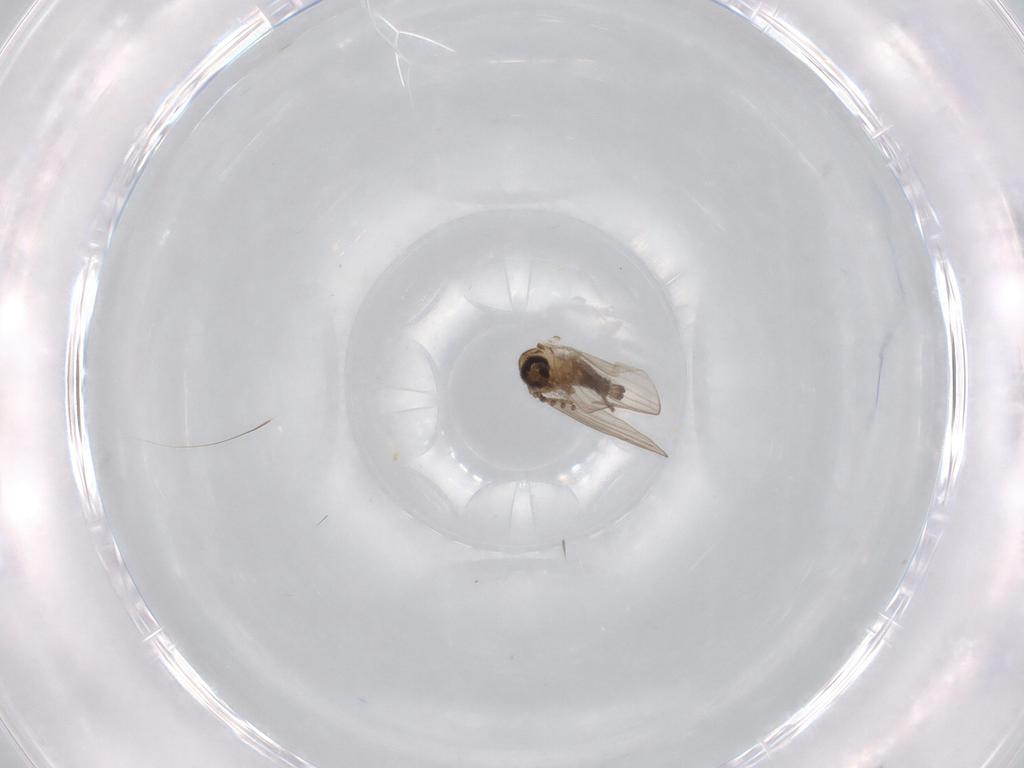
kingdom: Animalia
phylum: Arthropoda
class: Insecta
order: Diptera
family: Psychodidae
